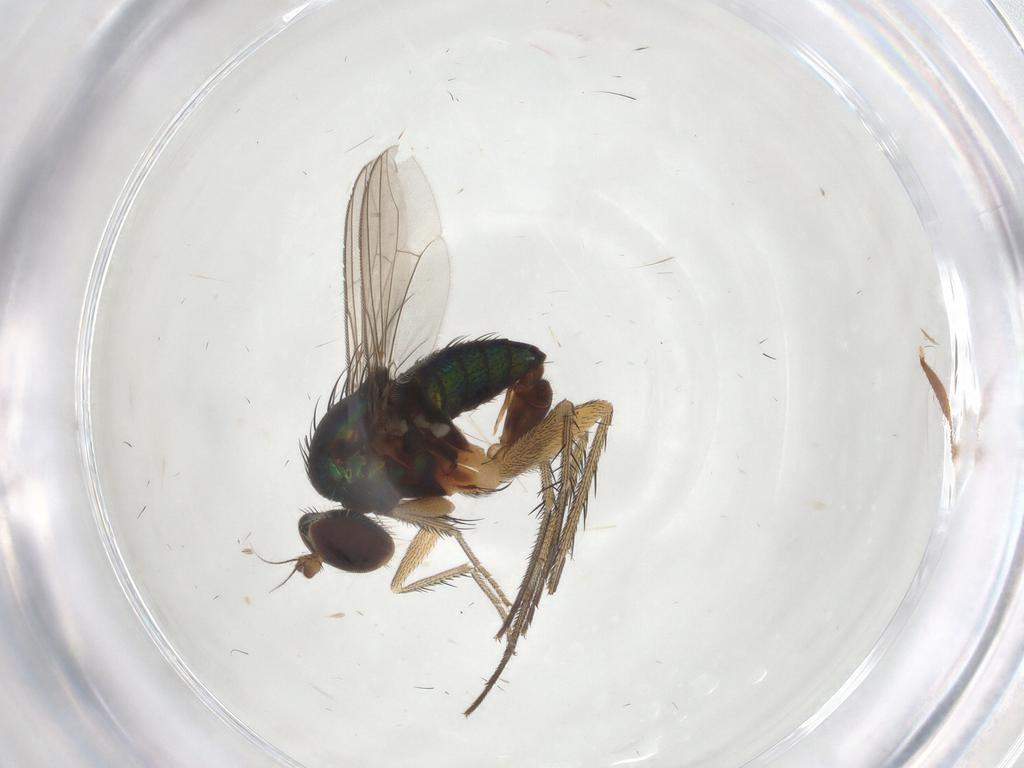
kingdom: Animalia
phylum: Arthropoda
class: Insecta
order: Diptera
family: Dolichopodidae
